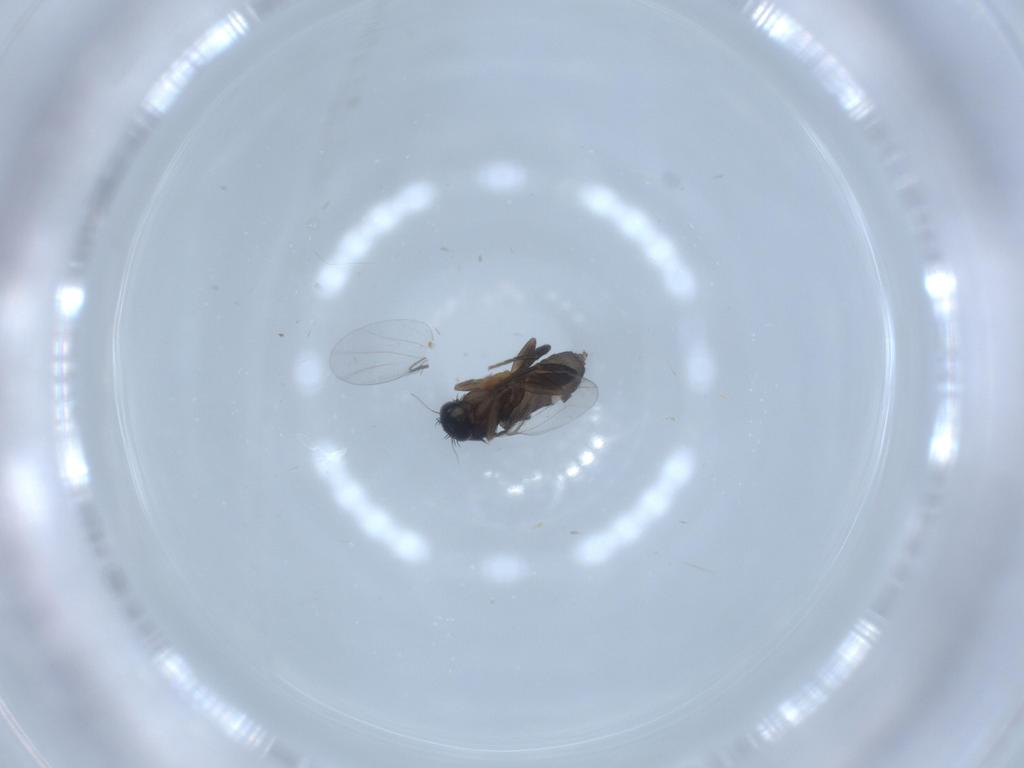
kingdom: Animalia
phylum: Arthropoda
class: Insecta
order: Diptera
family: Phoridae
